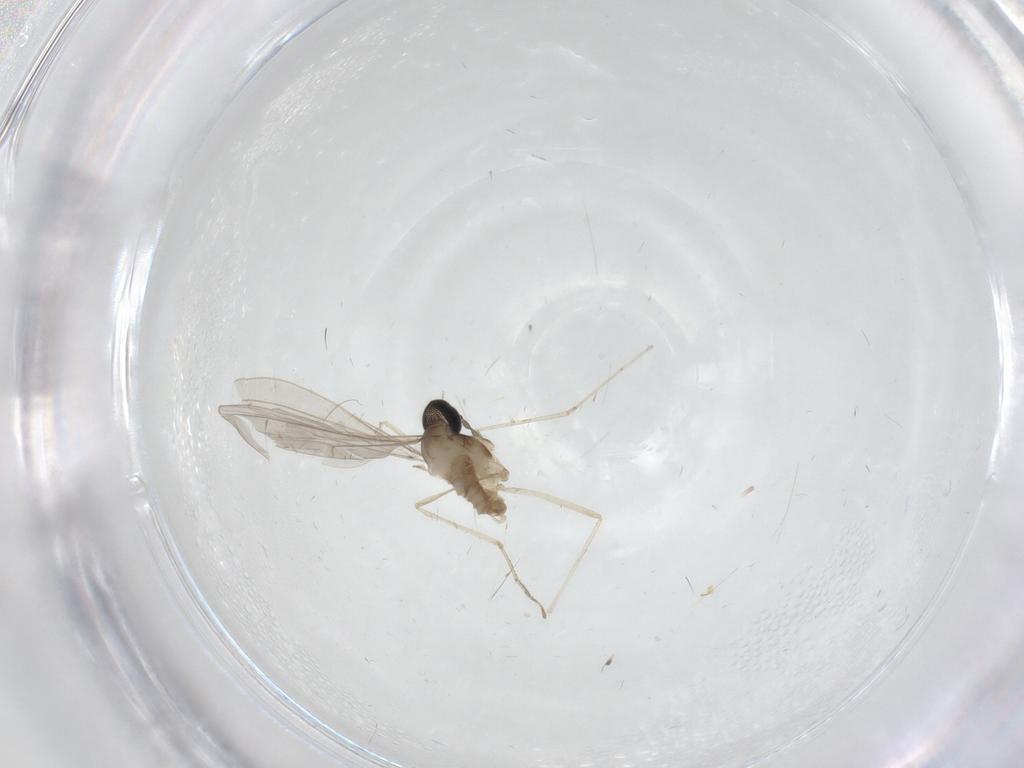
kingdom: Animalia
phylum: Arthropoda
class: Insecta
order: Diptera
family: Cecidomyiidae
